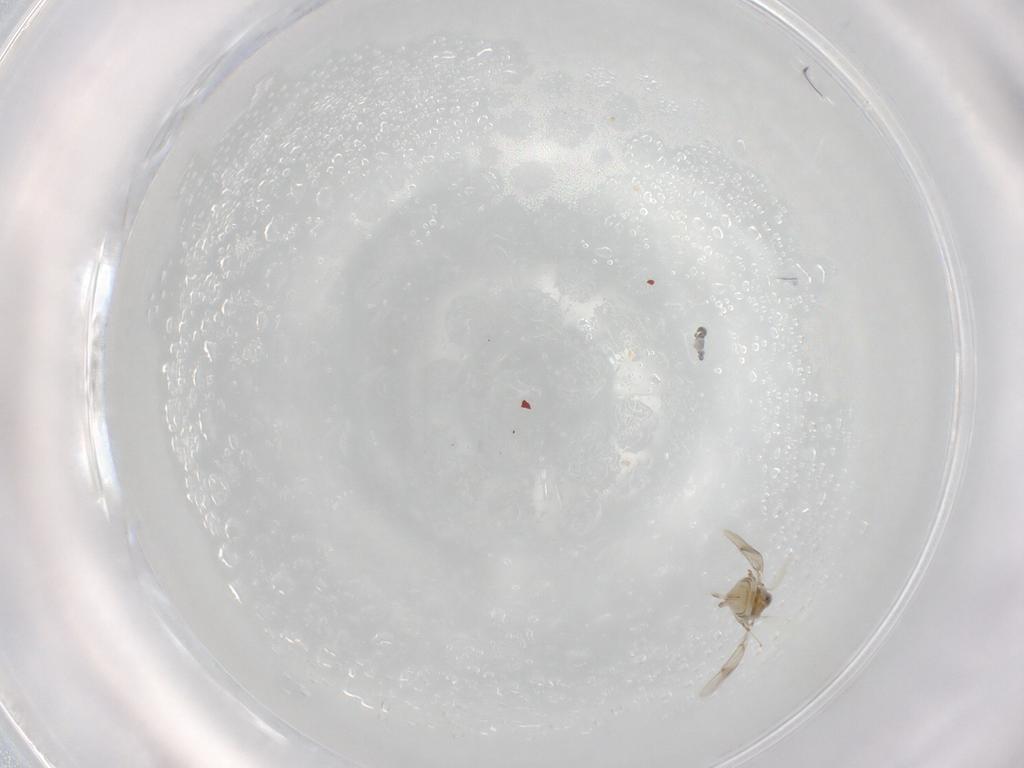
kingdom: Animalia
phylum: Arthropoda
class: Insecta
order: Hymenoptera
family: Aphelinidae
